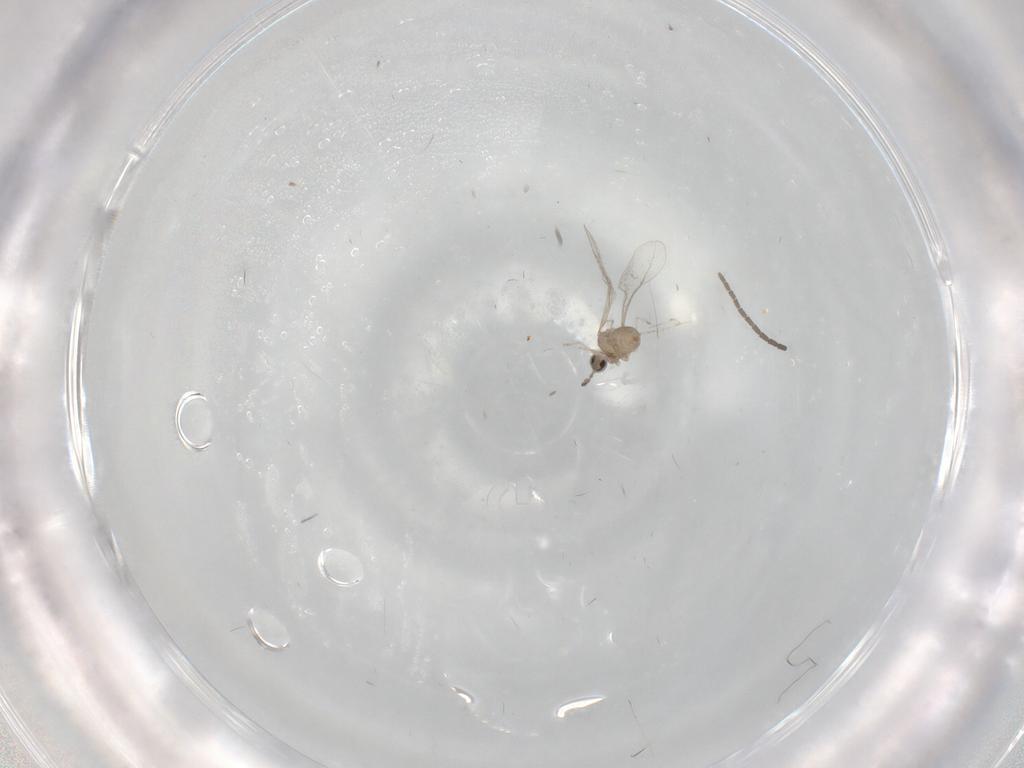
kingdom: Animalia
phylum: Arthropoda
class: Insecta
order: Diptera
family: Cecidomyiidae
